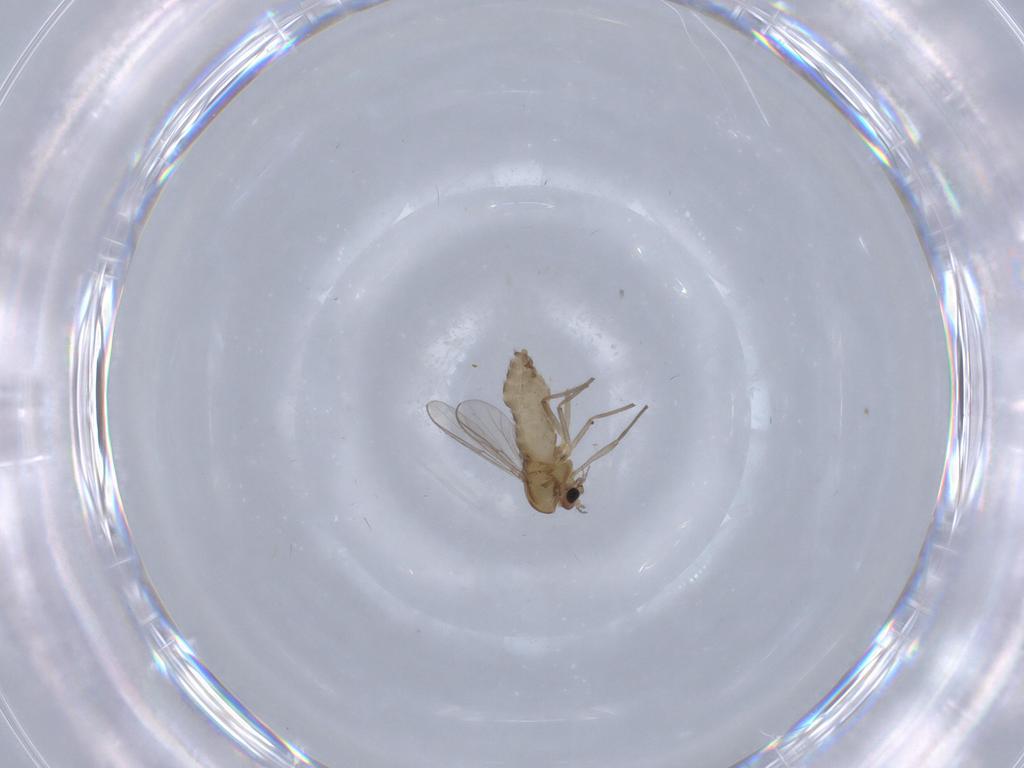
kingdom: Animalia
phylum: Arthropoda
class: Insecta
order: Diptera
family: Chironomidae
